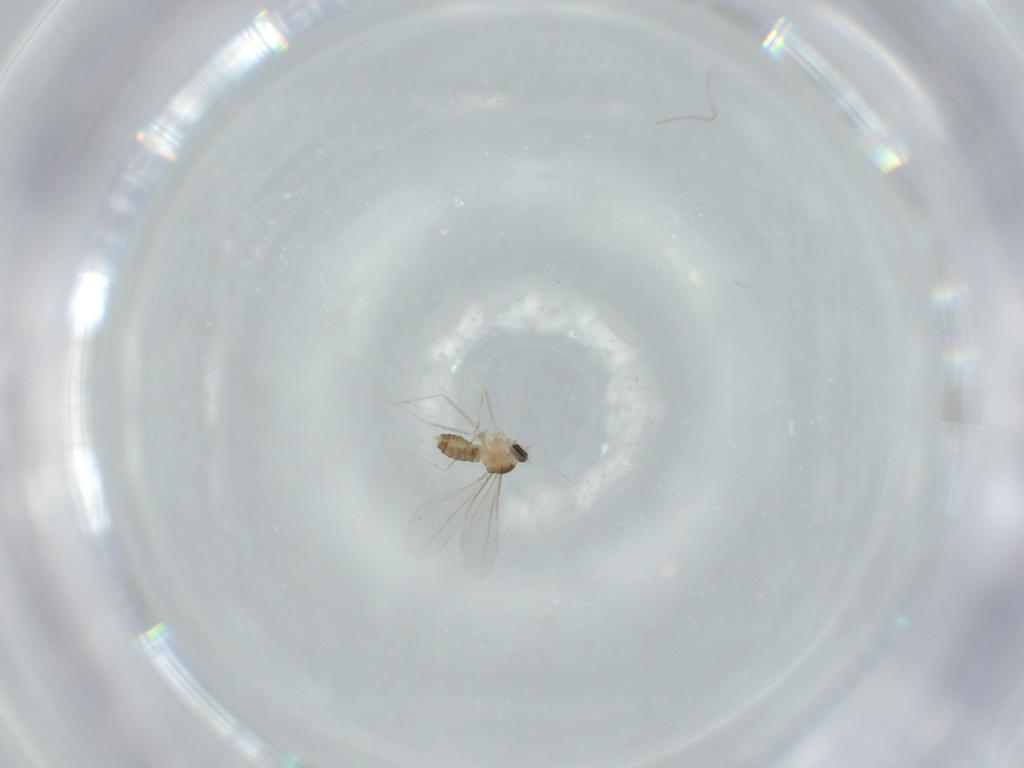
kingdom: Animalia
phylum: Arthropoda
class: Insecta
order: Diptera
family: Cecidomyiidae
